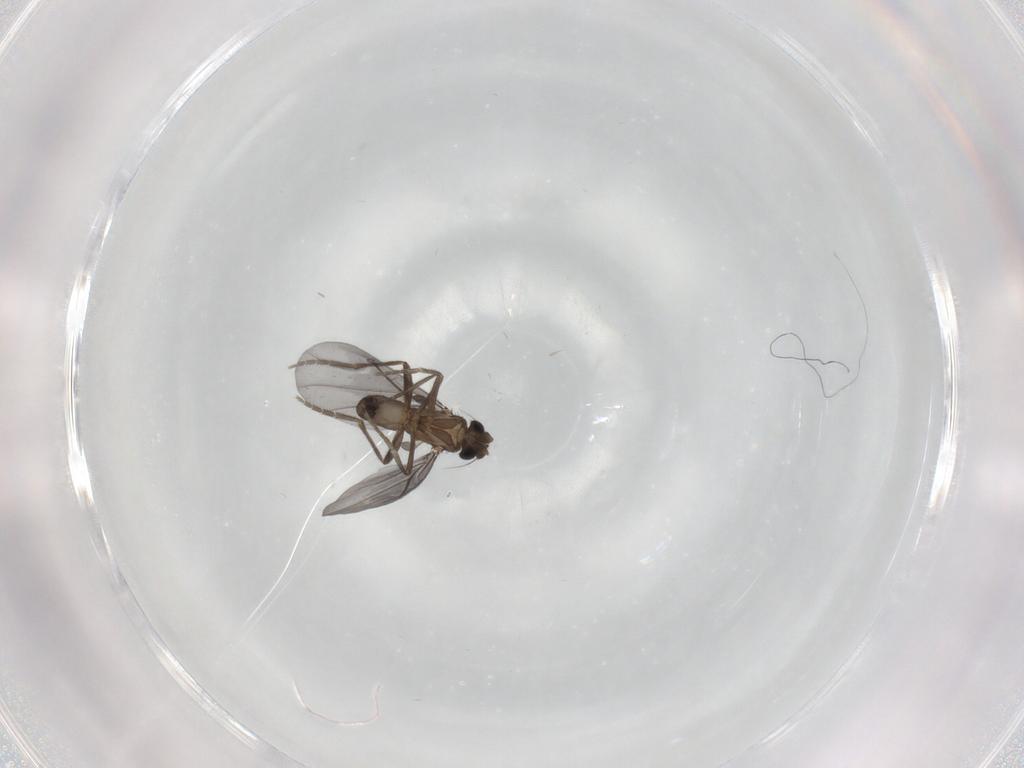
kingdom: Animalia
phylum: Arthropoda
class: Insecta
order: Diptera
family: Phoridae
